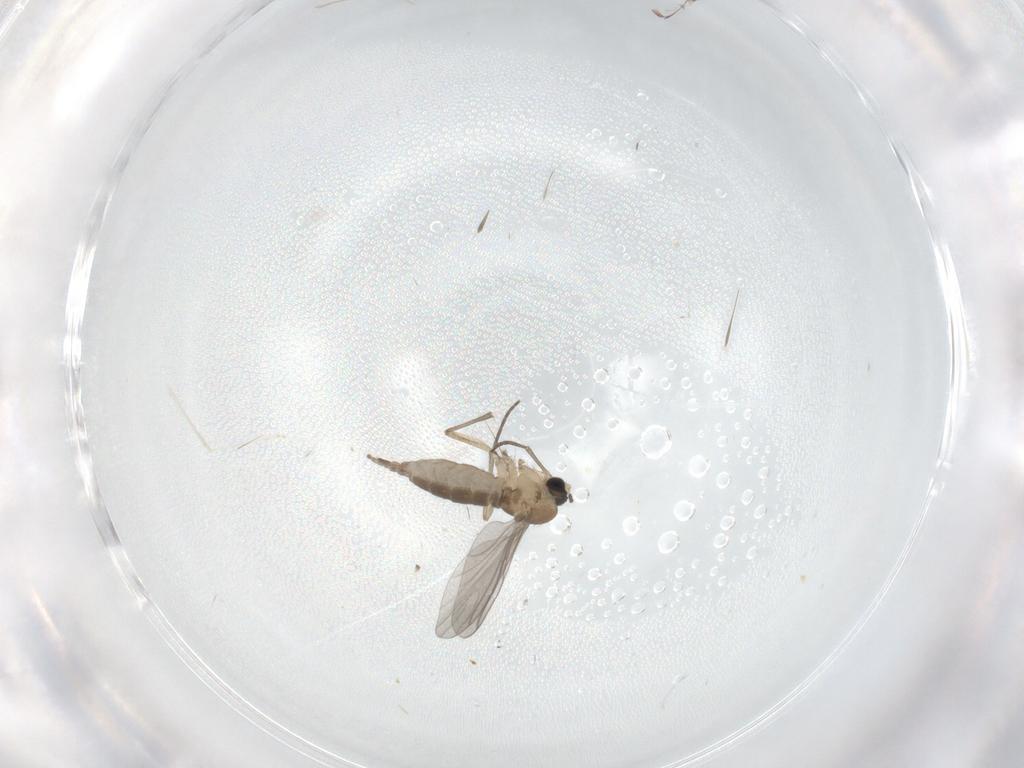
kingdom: Animalia
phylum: Arthropoda
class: Insecta
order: Diptera
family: Sciaridae
